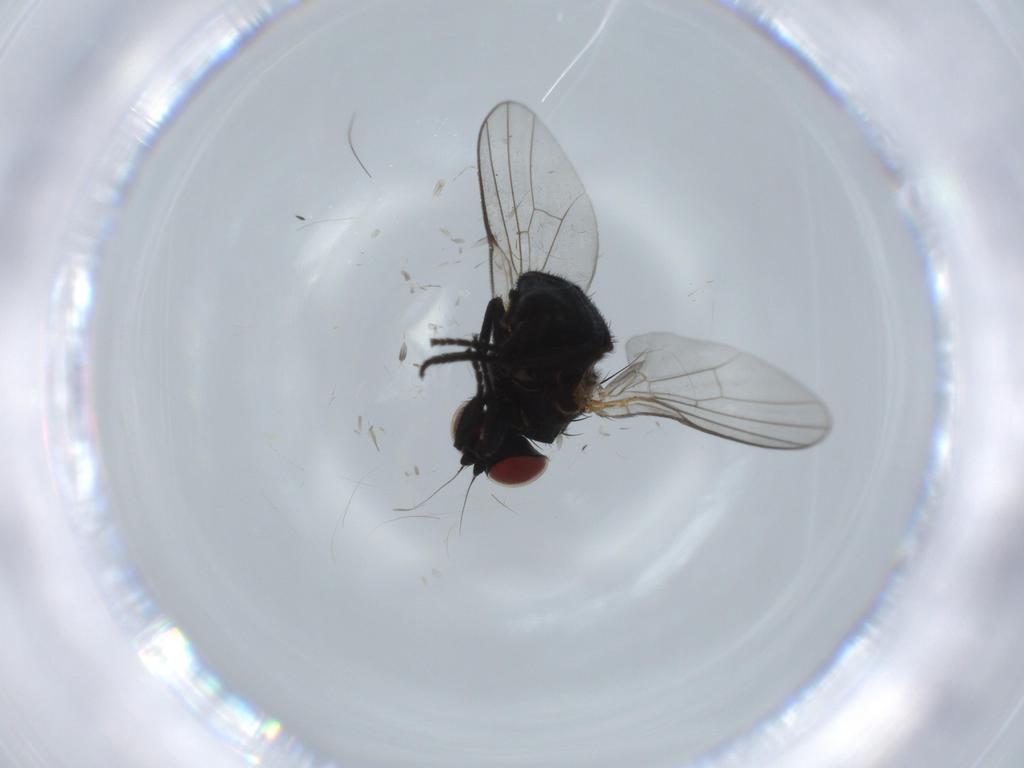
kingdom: Animalia
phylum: Arthropoda
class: Insecta
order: Diptera
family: Agromyzidae
